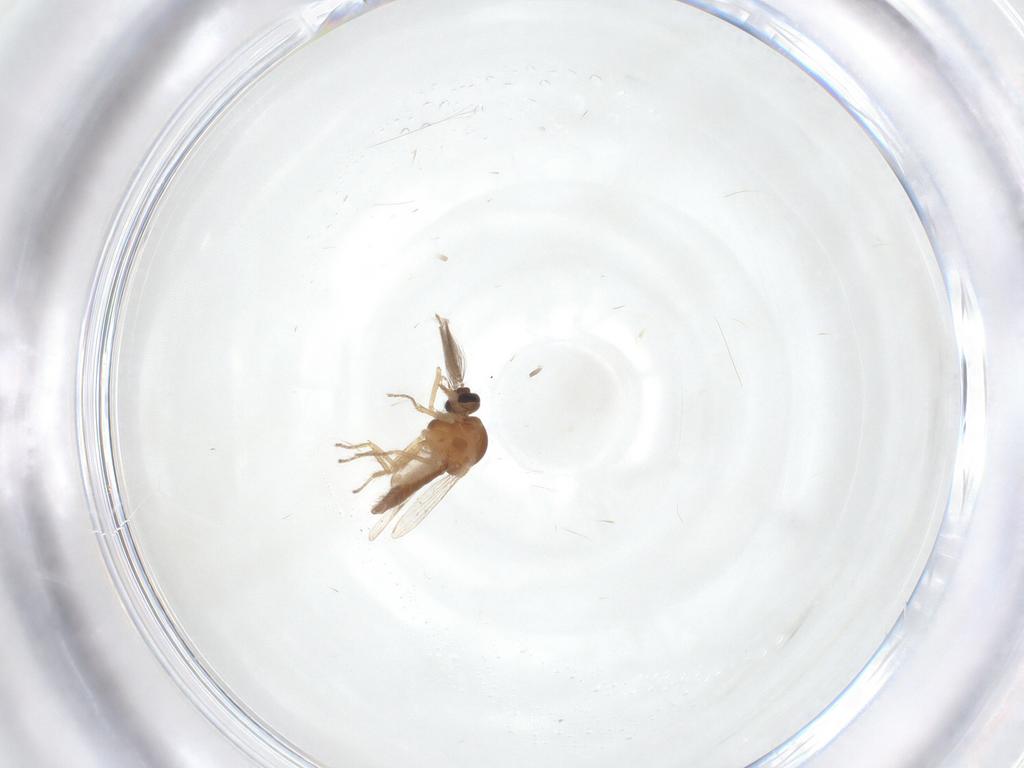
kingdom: Animalia
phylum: Arthropoda
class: Insecta
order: Diptera
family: Ceratopogonidae
